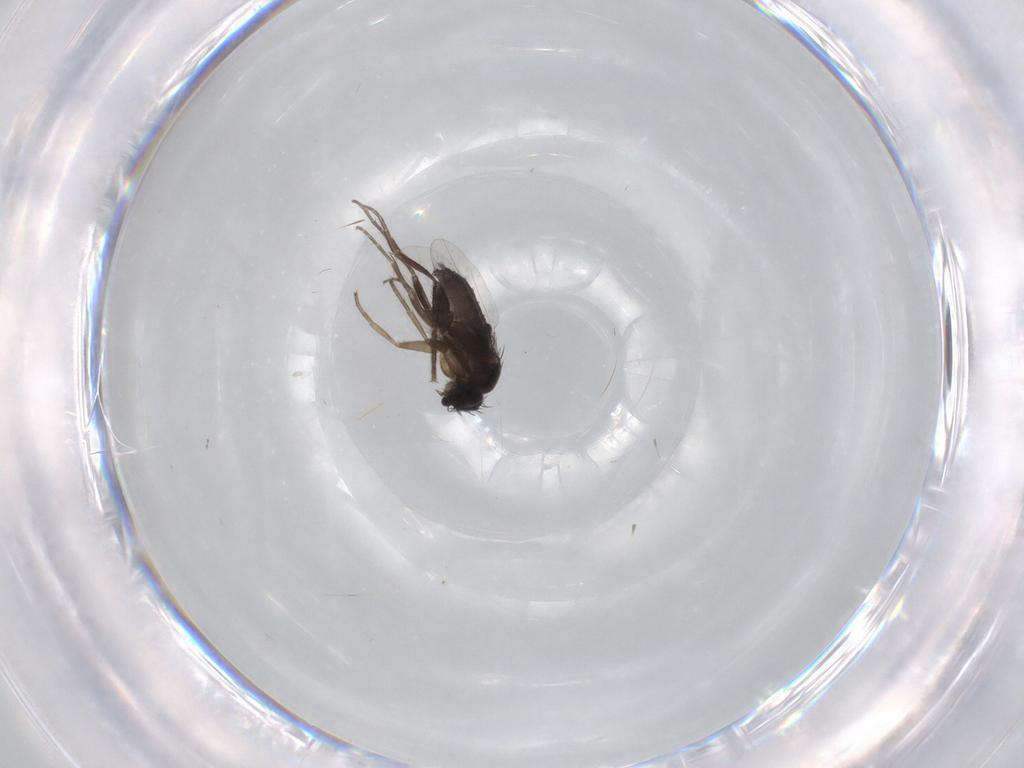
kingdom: Animalia
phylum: Arthropoda
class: Insecta
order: Diptera
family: Phoridae
